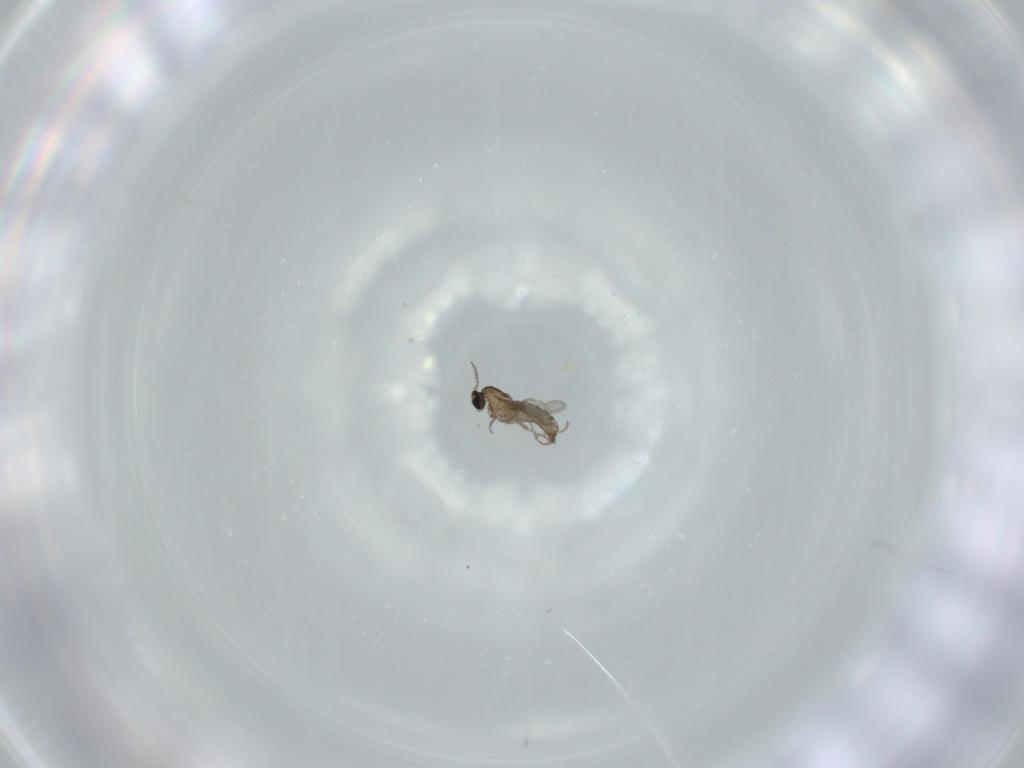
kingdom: Animalia
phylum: Arthropoda
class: Insecta
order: Diptera
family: Cecidomyiidae
